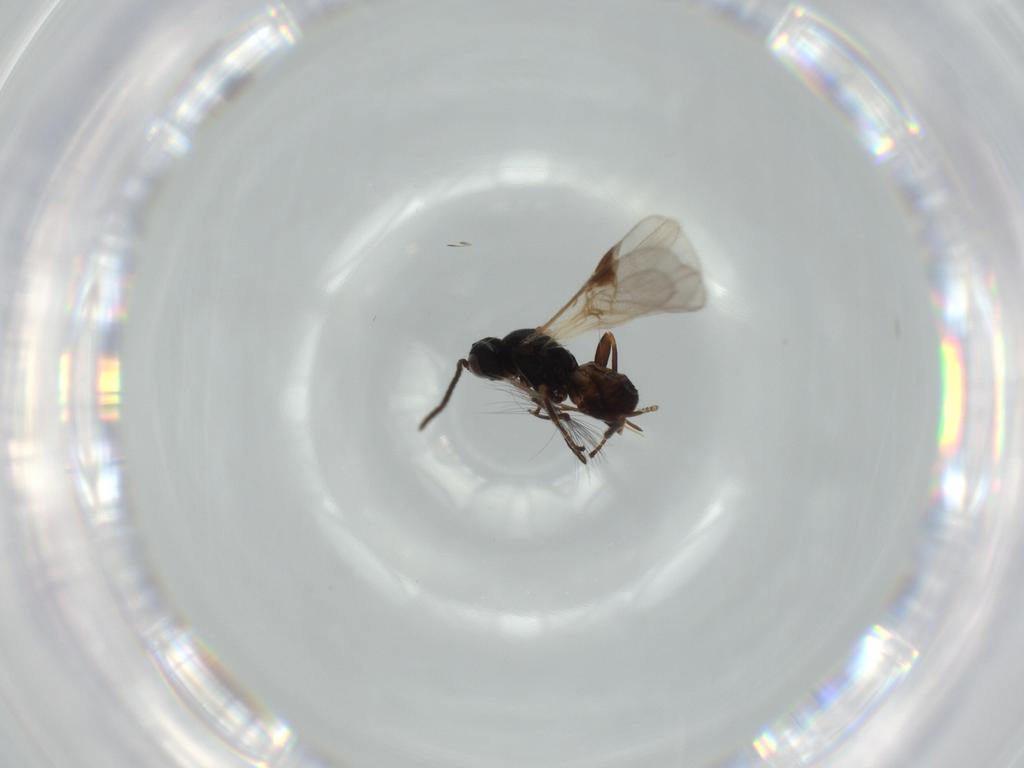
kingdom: Animalia
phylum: Arthropoda
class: Insecta
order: Hymenoptera
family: Braconidae
